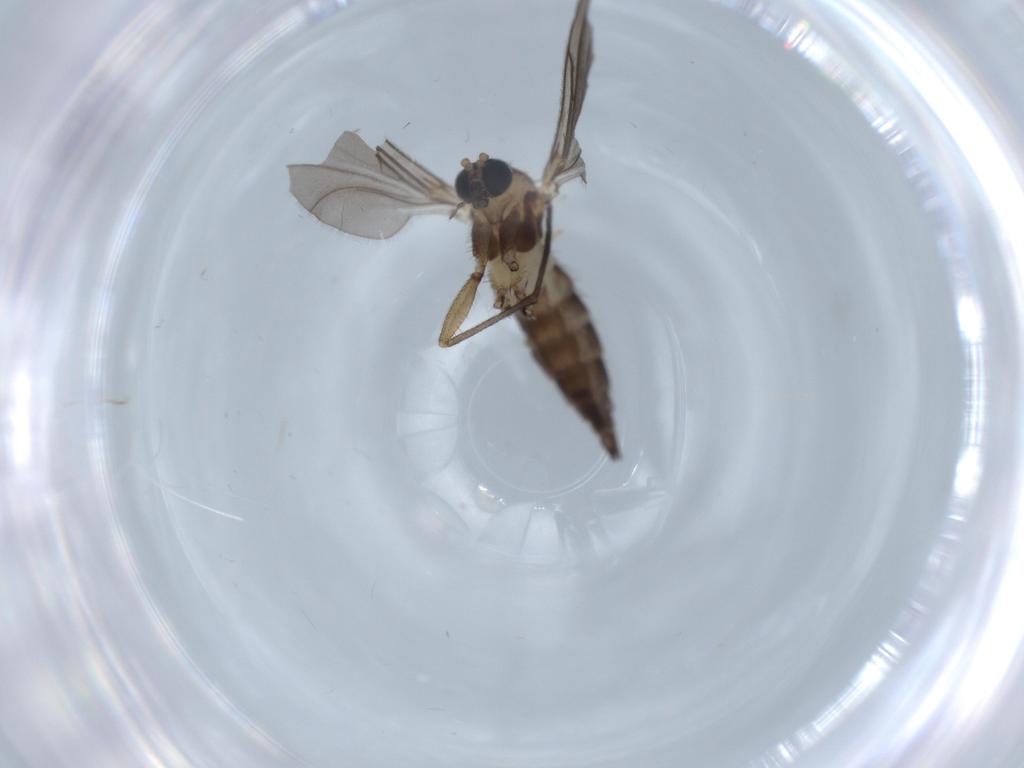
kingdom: Animalia
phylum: Arthropoda
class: Insecta
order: Diptera
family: Sciaridae
